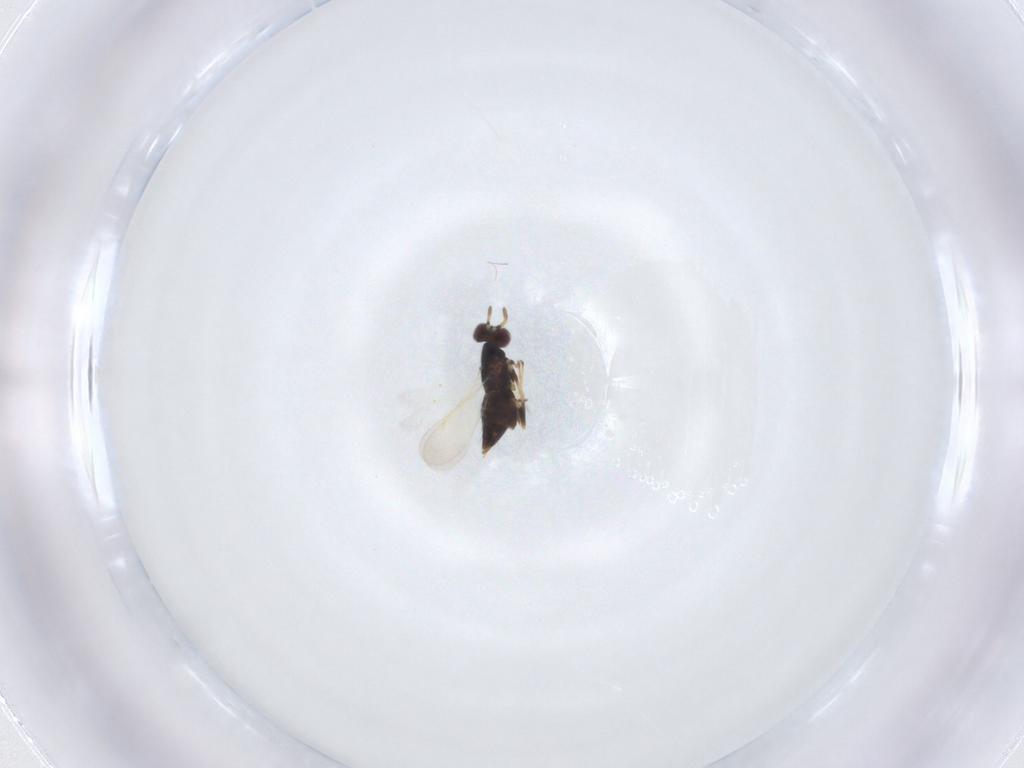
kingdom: Animalia
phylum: Arthropoda
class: Insecta
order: Hymenoptera
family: Aphelinidae
